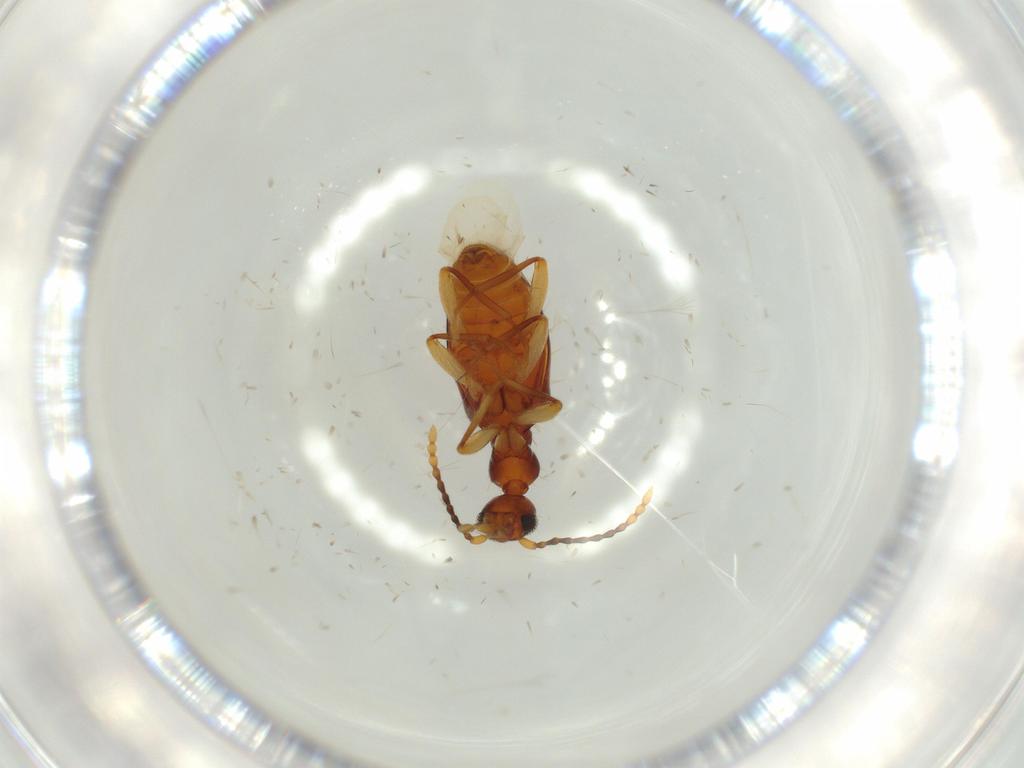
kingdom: Animalia
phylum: Arthropoda
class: Insecta
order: Coleoptera
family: Anthicidae
